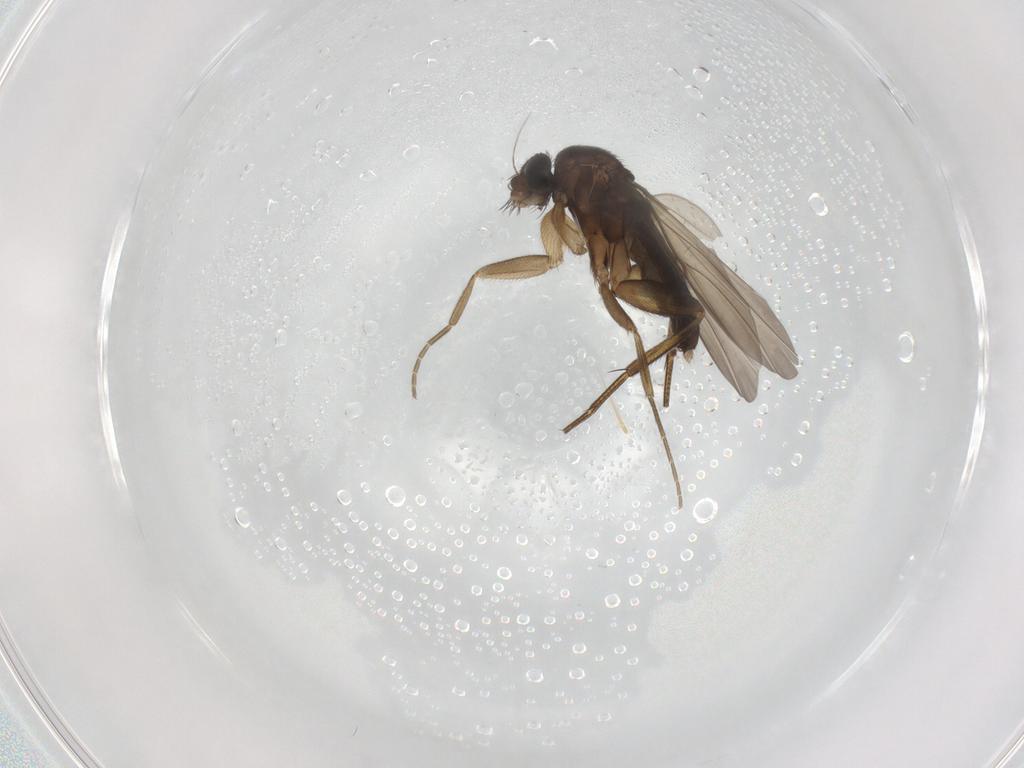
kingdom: Animalia
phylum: Arthropoda
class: Insecta
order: Diptera
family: Phoridae
